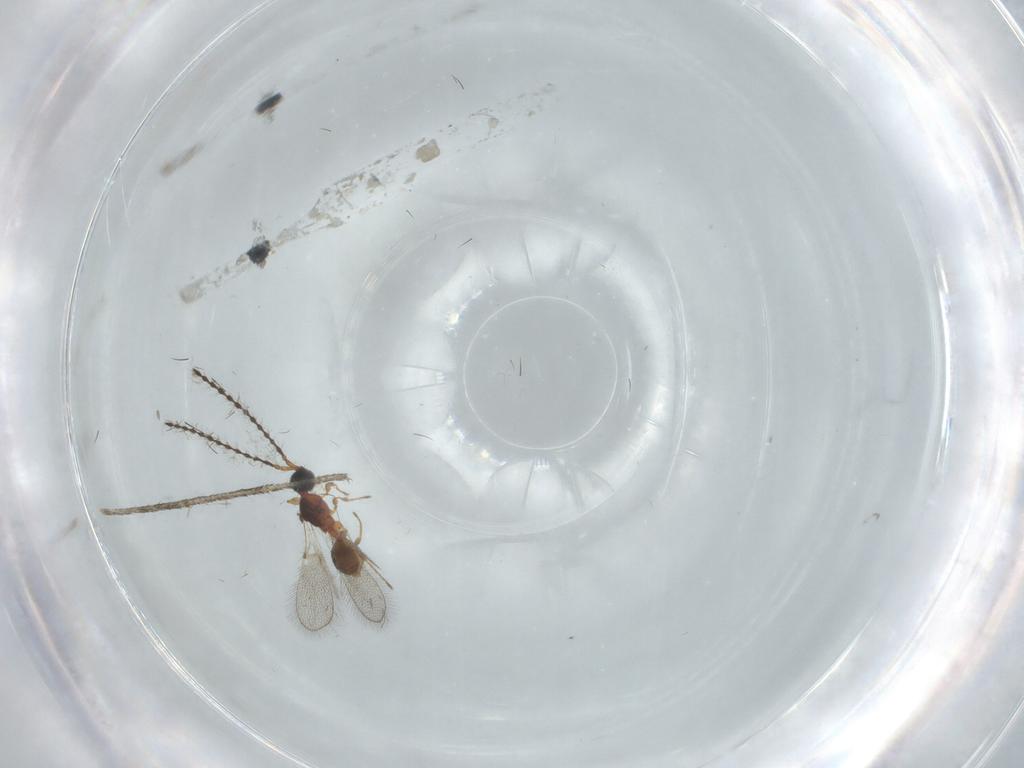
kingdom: Animalia
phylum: Arthropoda
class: Insecta
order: Hymenoptera
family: Diapriidae
